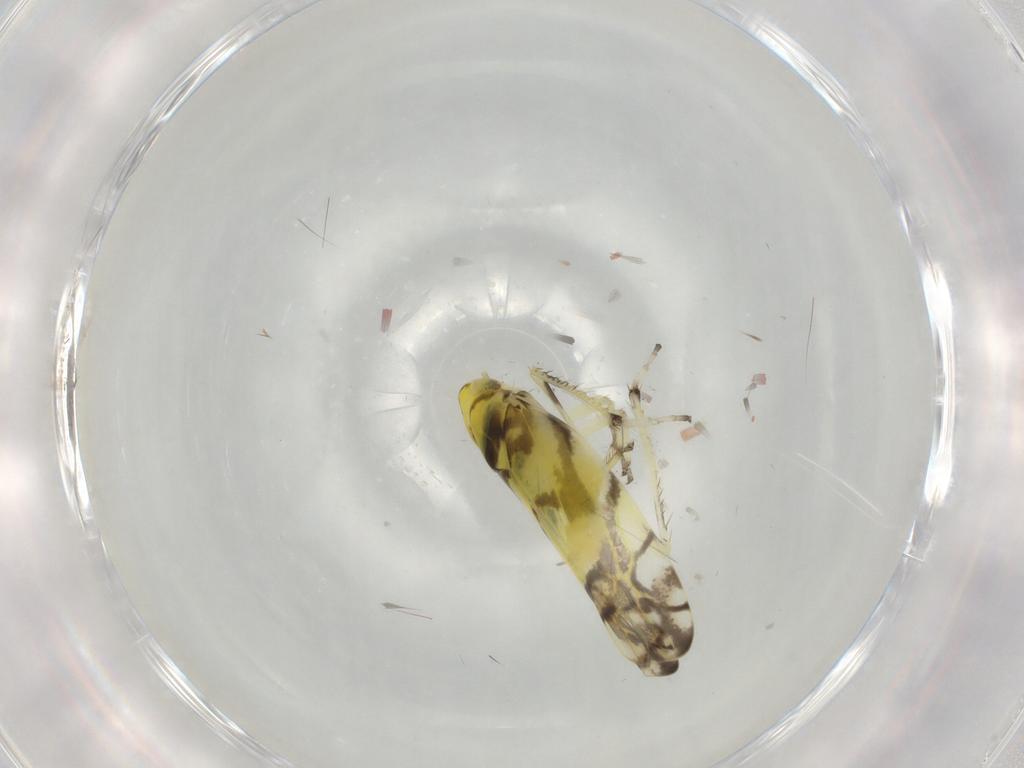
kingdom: Animalia
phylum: Arthropoda
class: Insecta
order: Hemiptera
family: Cicadellidae
